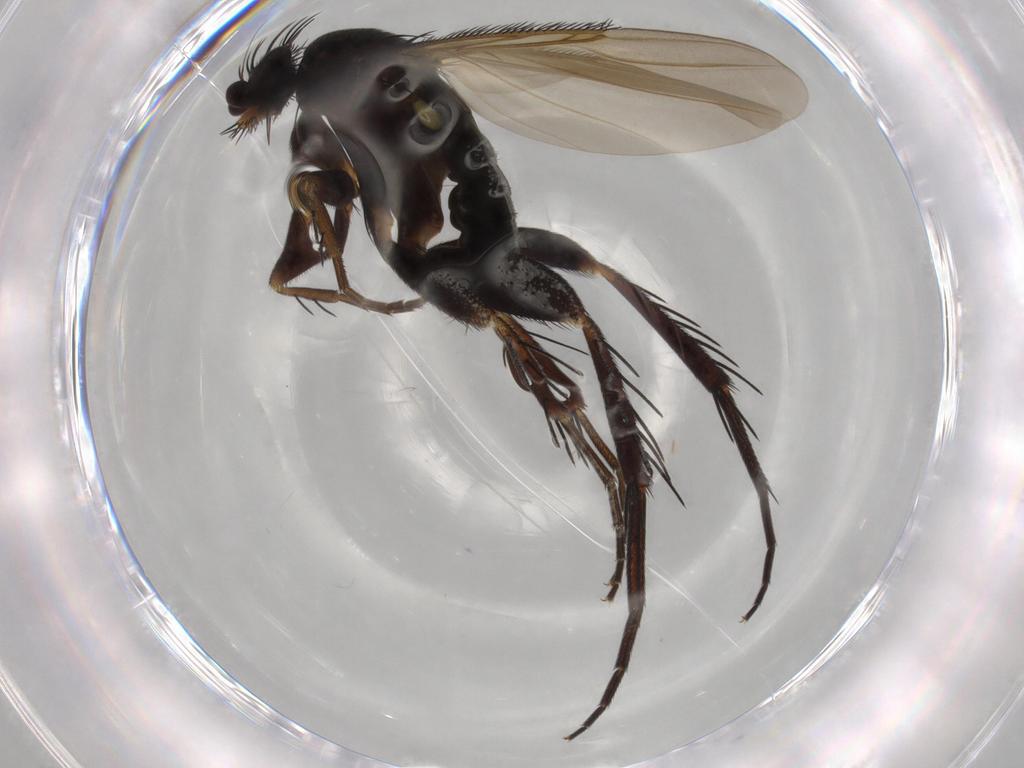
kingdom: Animalia
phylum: Arthropoda
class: Insecta
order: Diptera
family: Phoridae
